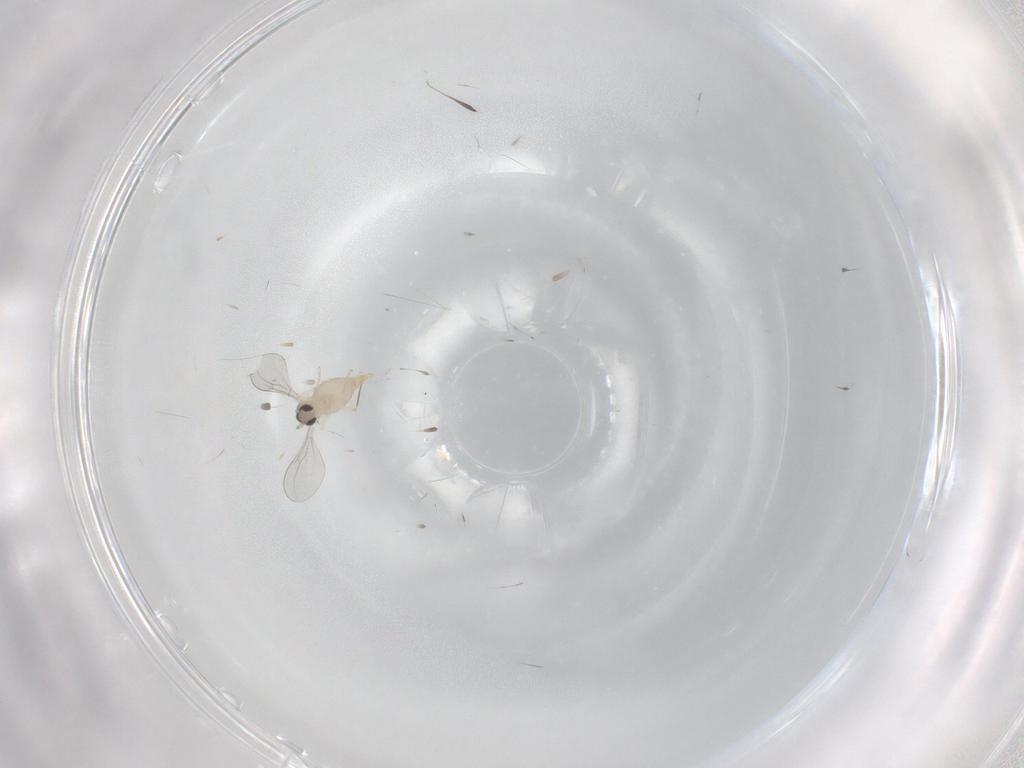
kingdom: Animalia
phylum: Arthropoda
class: Insecta
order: Diptera
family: Cecidomyiidae
